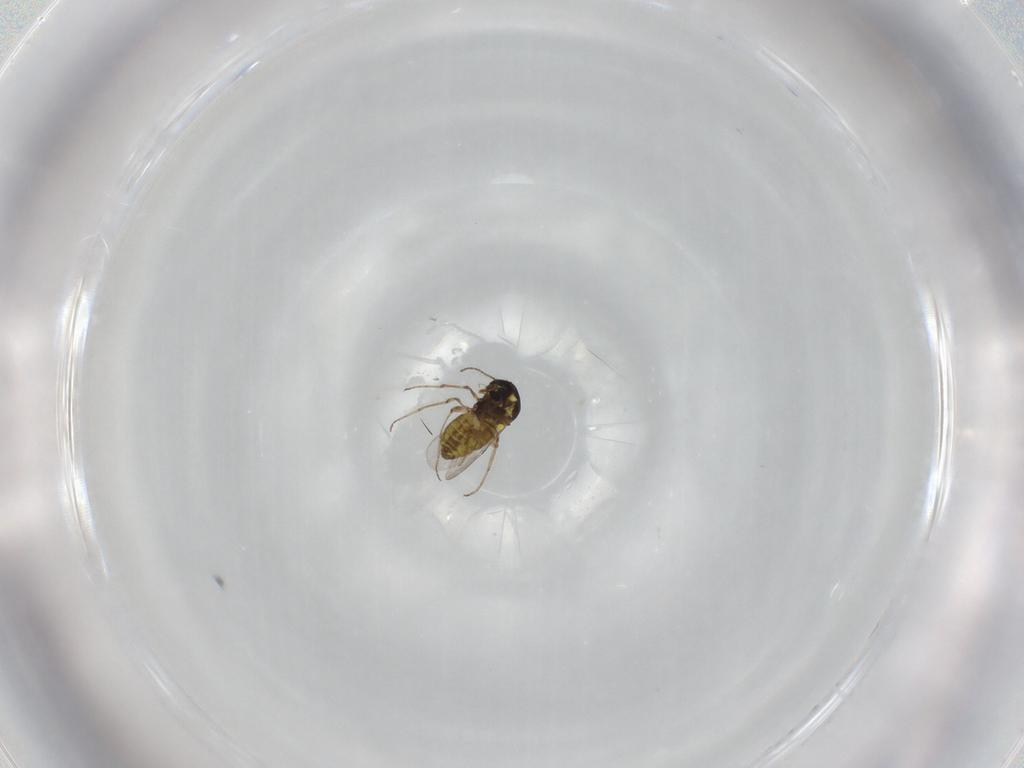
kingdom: Animalia
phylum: Arthropoda
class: Insecta
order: Diptera
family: Ceratopogonidae
